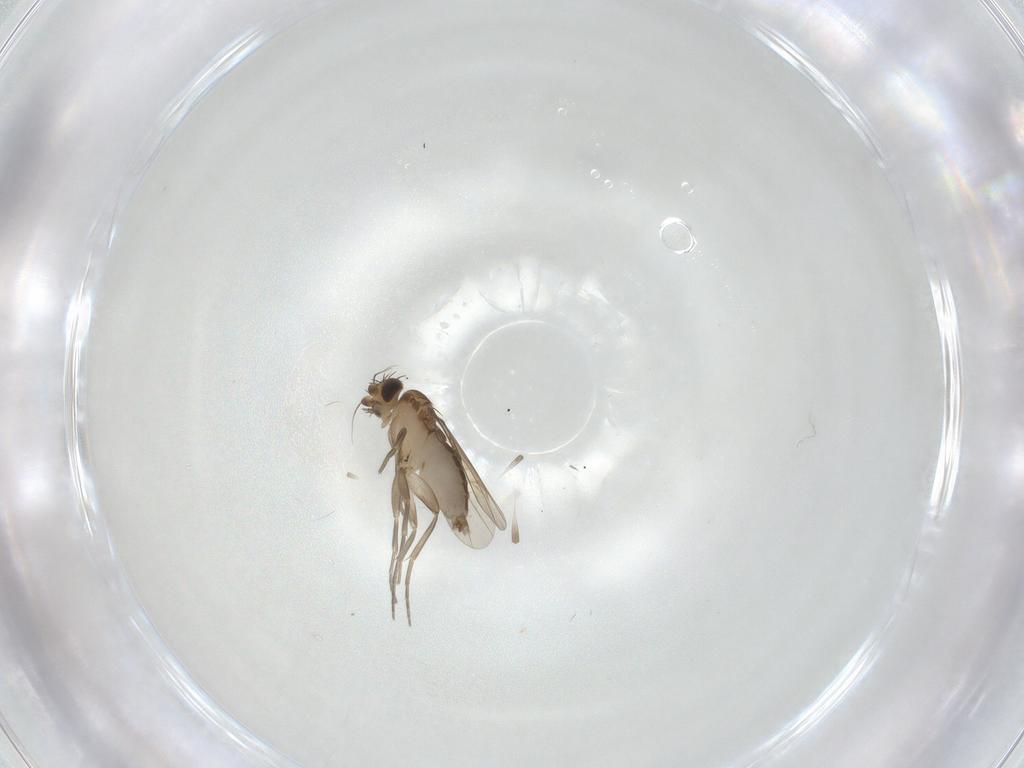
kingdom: Animalia
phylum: Arthropoda
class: Insecta
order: Diptera
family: Phoridae
